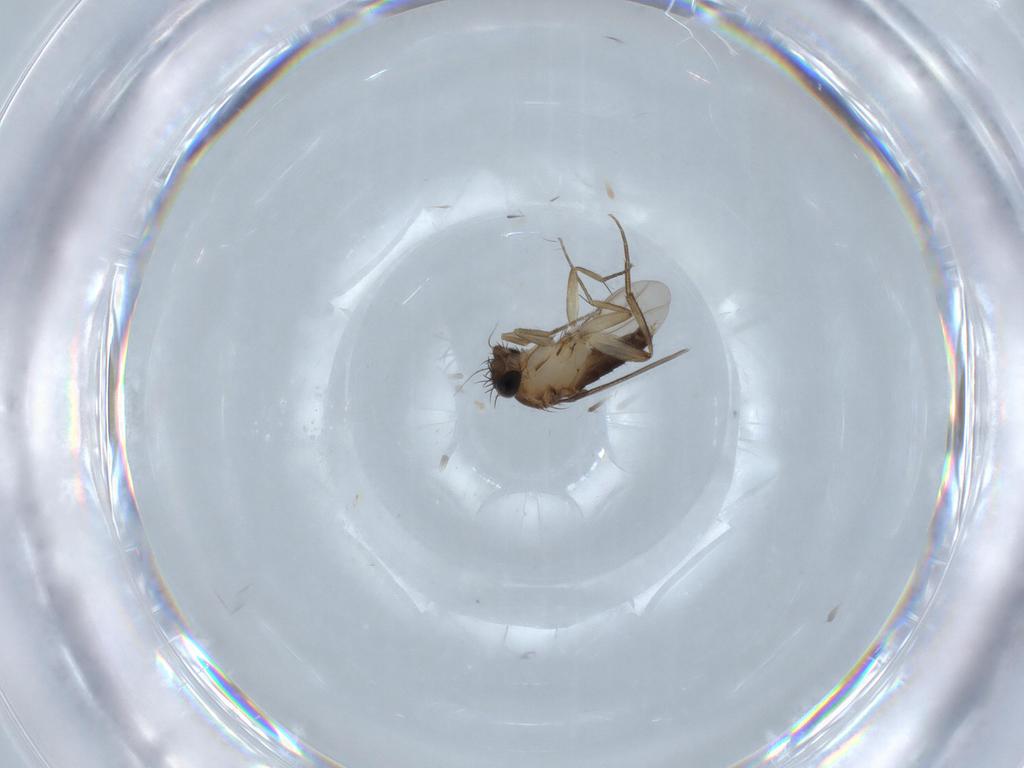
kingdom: Animalia
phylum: Arthropoda
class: Insecta
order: Diptera
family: Phoridae
